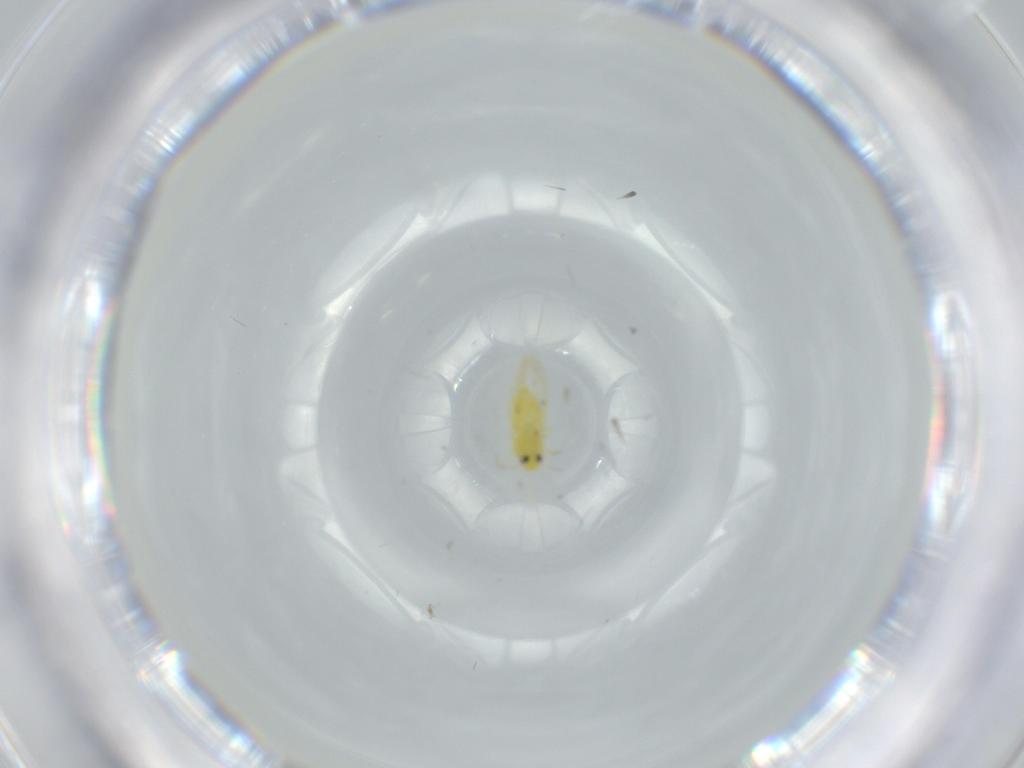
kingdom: Animalia
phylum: Arthropoda
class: Insecta
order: Hemiptera
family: Aleyrodidae
